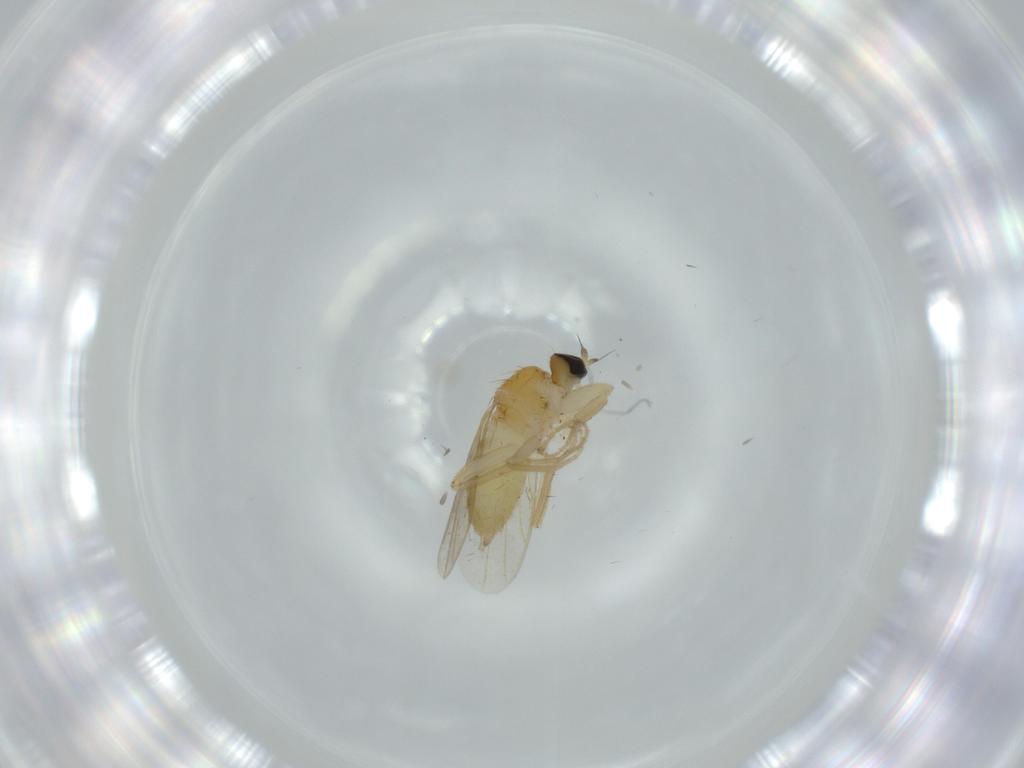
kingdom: Animalia
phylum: Arthropoda
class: Insecta
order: Diptera
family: Hybotidae
